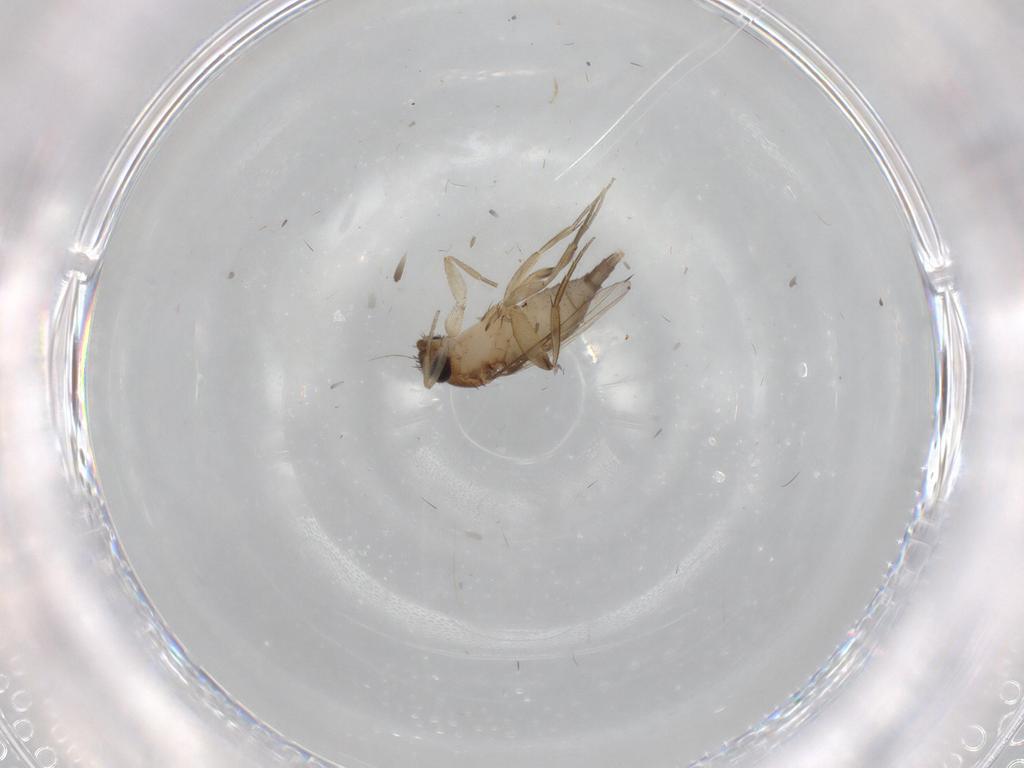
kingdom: Animalia
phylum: Arthropoda
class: Insecta
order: Diptera
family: Phoridae
